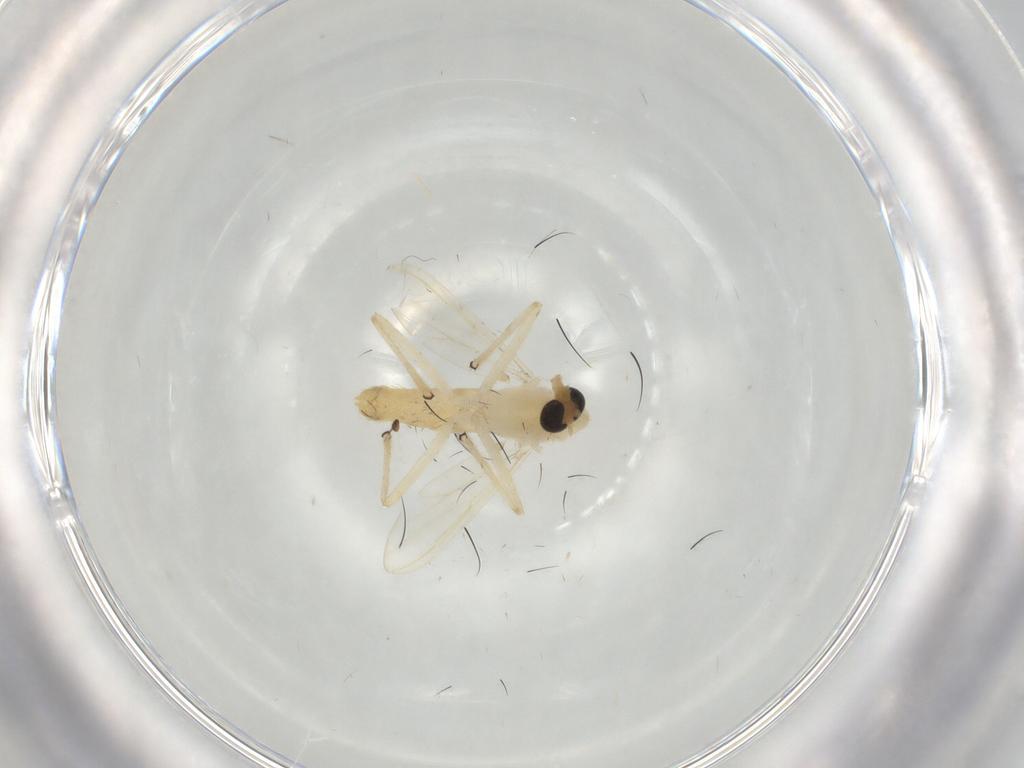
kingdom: Animalia
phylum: Arthropoda
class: Insecta
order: Diptera
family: Chironomidae
